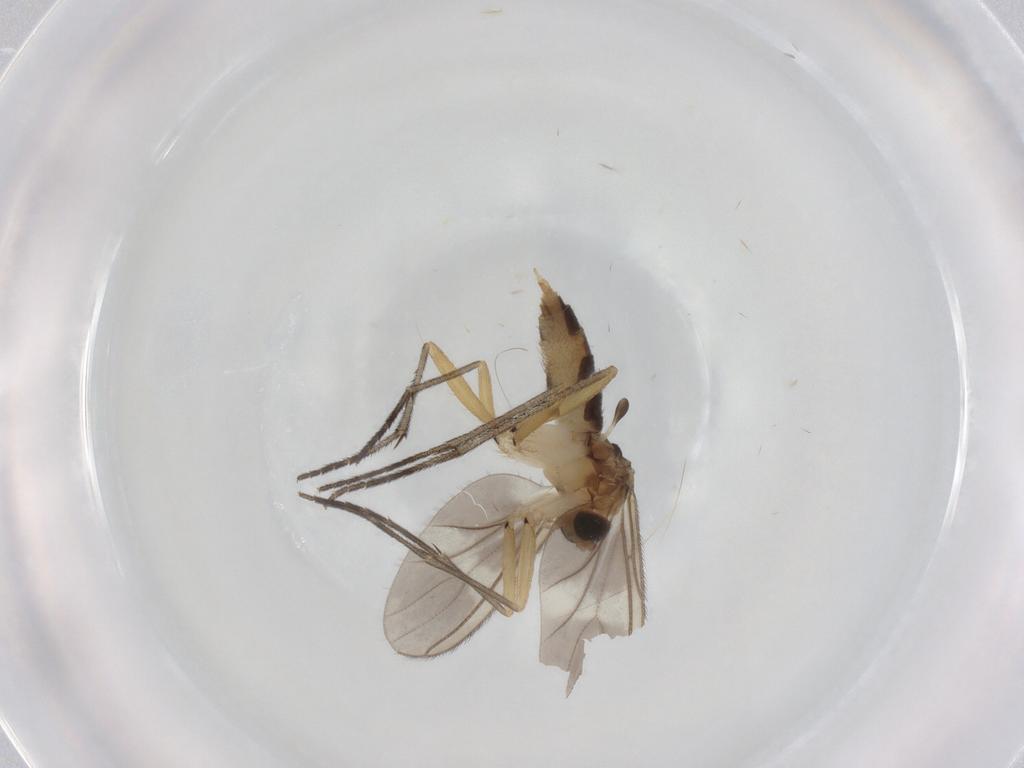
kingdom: Animalia
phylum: Arthropoda
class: Insecta
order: Diptera
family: Sciaridae
